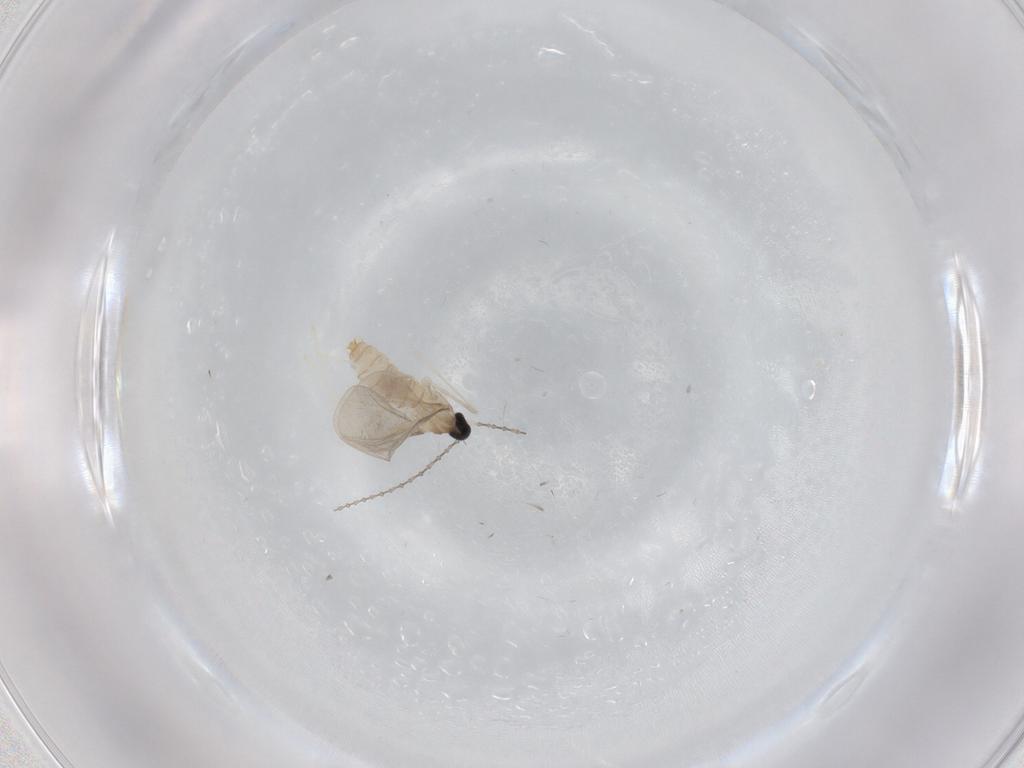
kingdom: Animalia
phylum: Arthropoda
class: Insecta
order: Diptera
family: Cecidomyiidae
